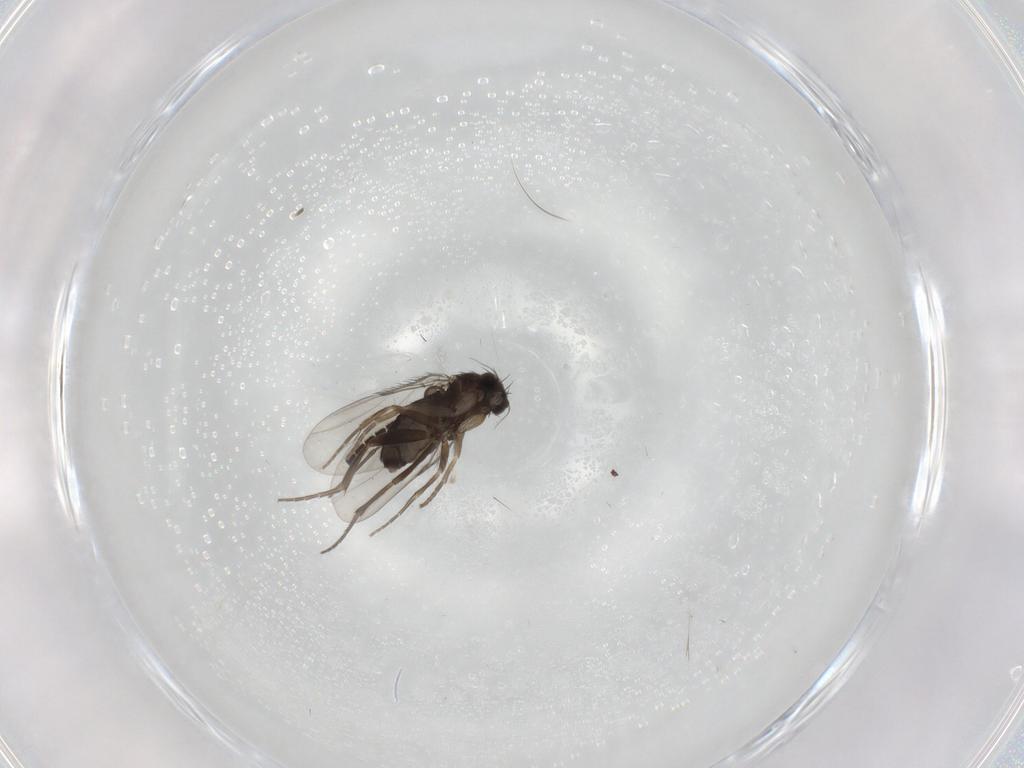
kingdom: Animalia
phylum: Arthropoda
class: Insecta
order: Diptera
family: Phoridae
